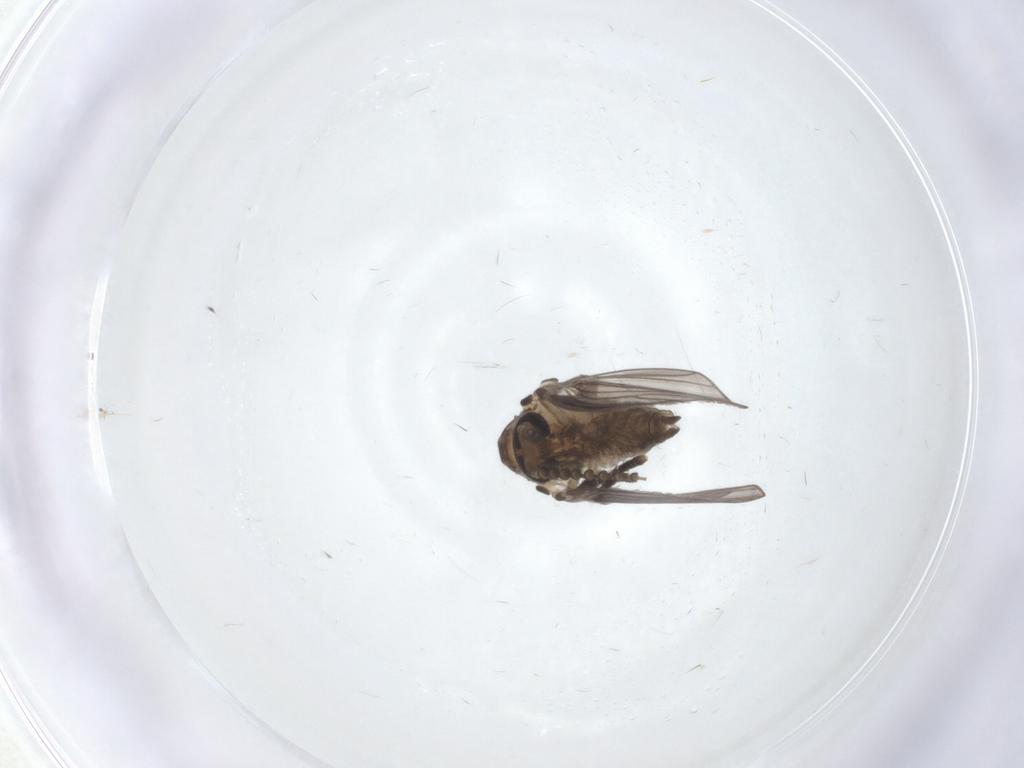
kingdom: Animalia
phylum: Arthropoda
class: Insecta
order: Diptera
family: Psychodidae
